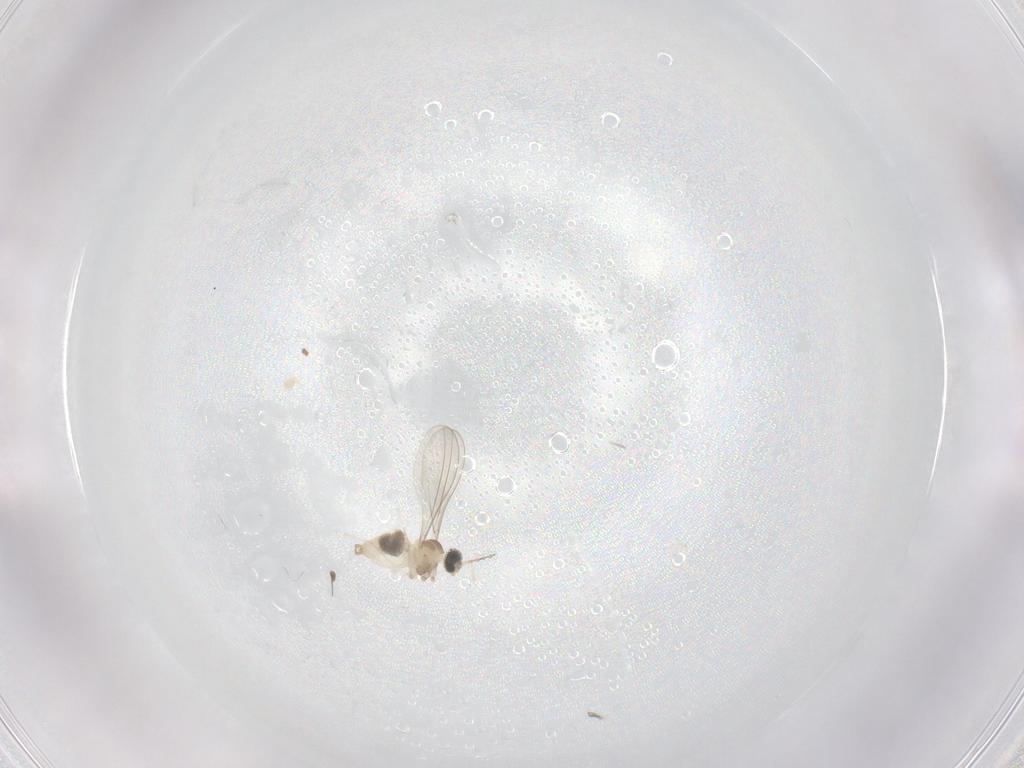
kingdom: Animalia
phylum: Arthropoda
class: Insecta
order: Diptera
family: Cecidomyiidae
